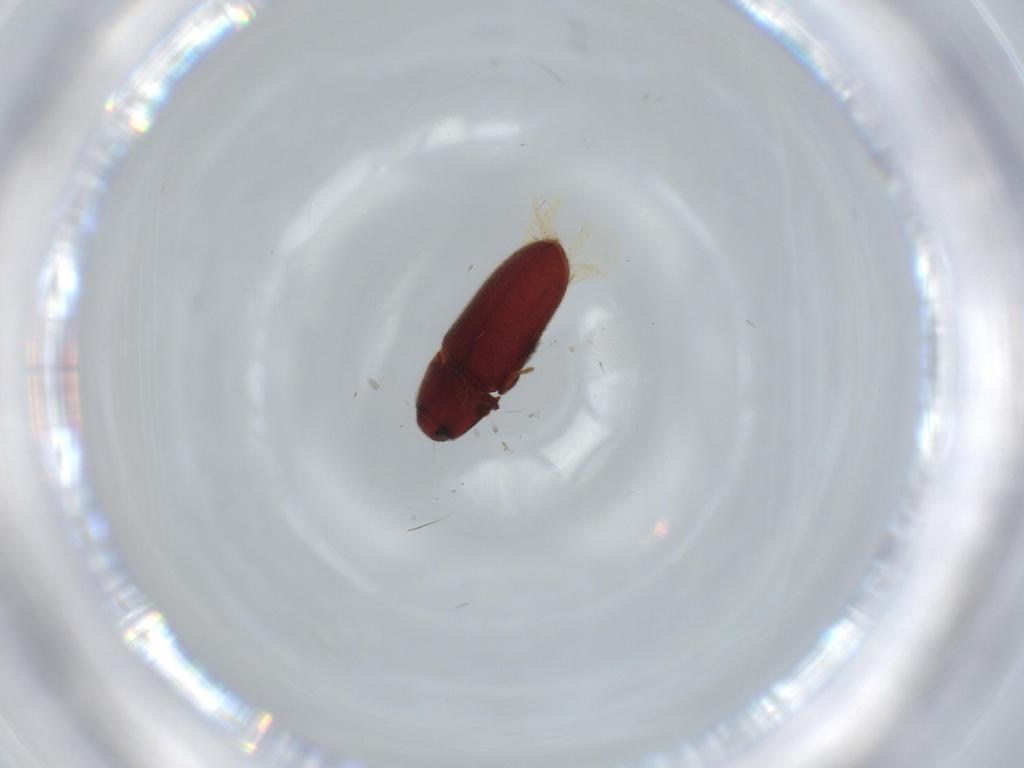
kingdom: Animalia
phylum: Arthropoda
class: Insecta
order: Coleoptera
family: Throscidae
